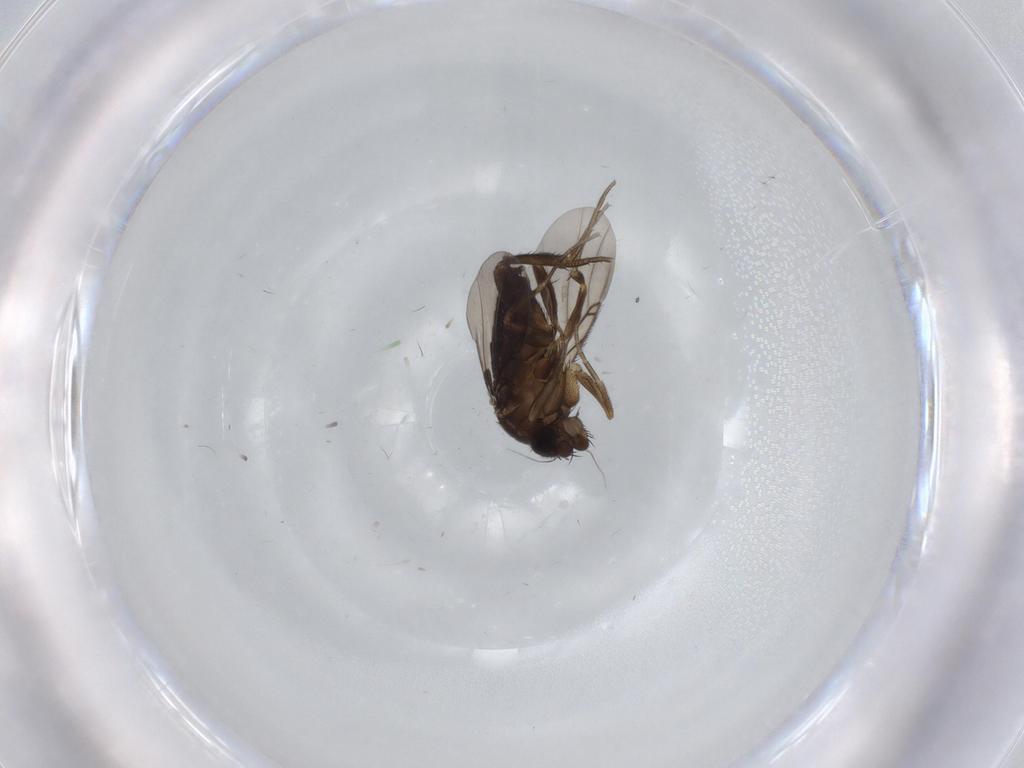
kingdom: Animalia
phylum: Arthropoda
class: Insecta
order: Diptera
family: Phoridae
